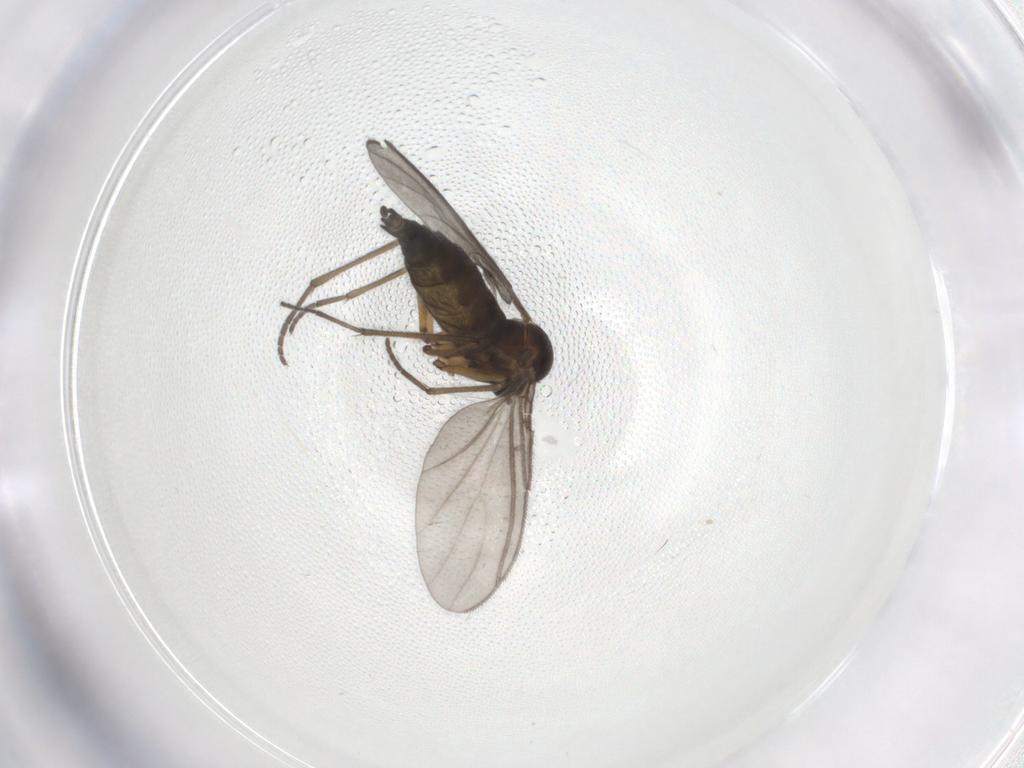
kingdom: Animalia
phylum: Arthropoda
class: Insecta
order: Diptera
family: Sciaridae
